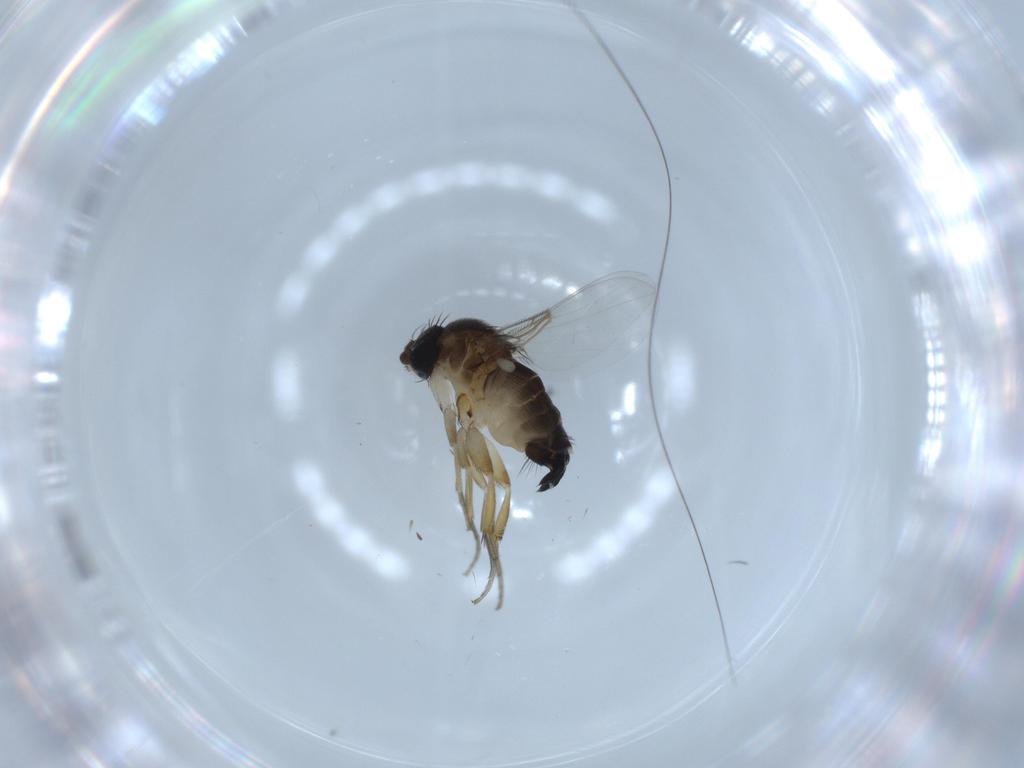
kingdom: Animalia
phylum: Arthropoda
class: Insecta
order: Diptera
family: Phoridae
